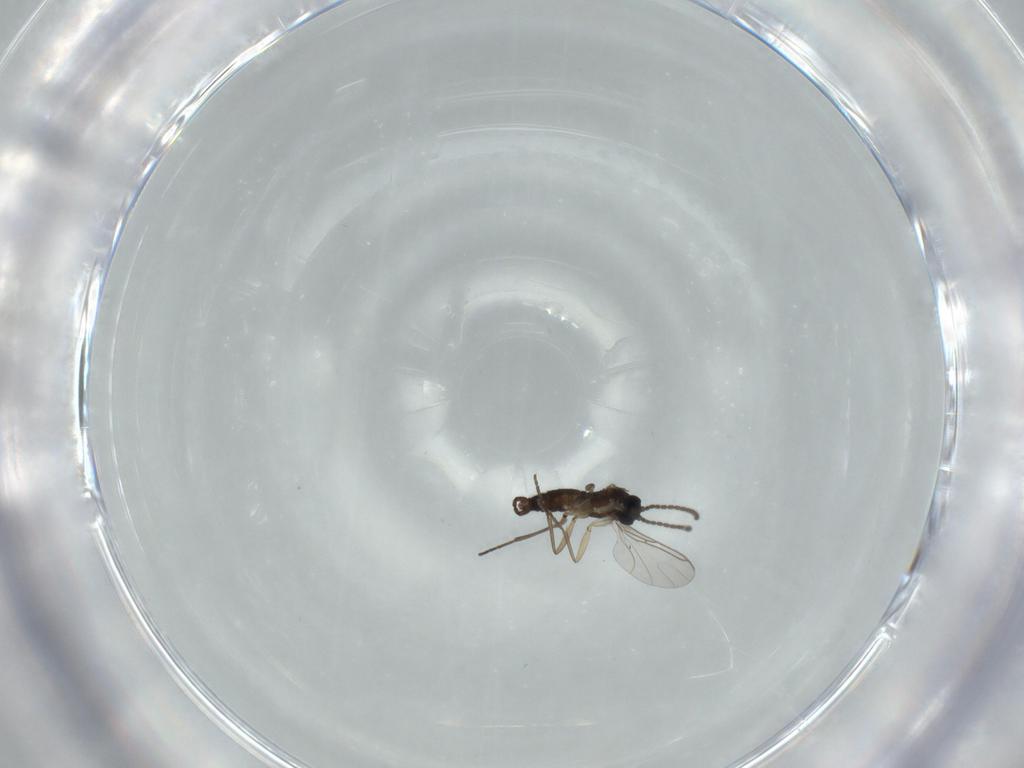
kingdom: Animalia
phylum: Arthropoda
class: Insecta
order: Diptera
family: Sciaridae
